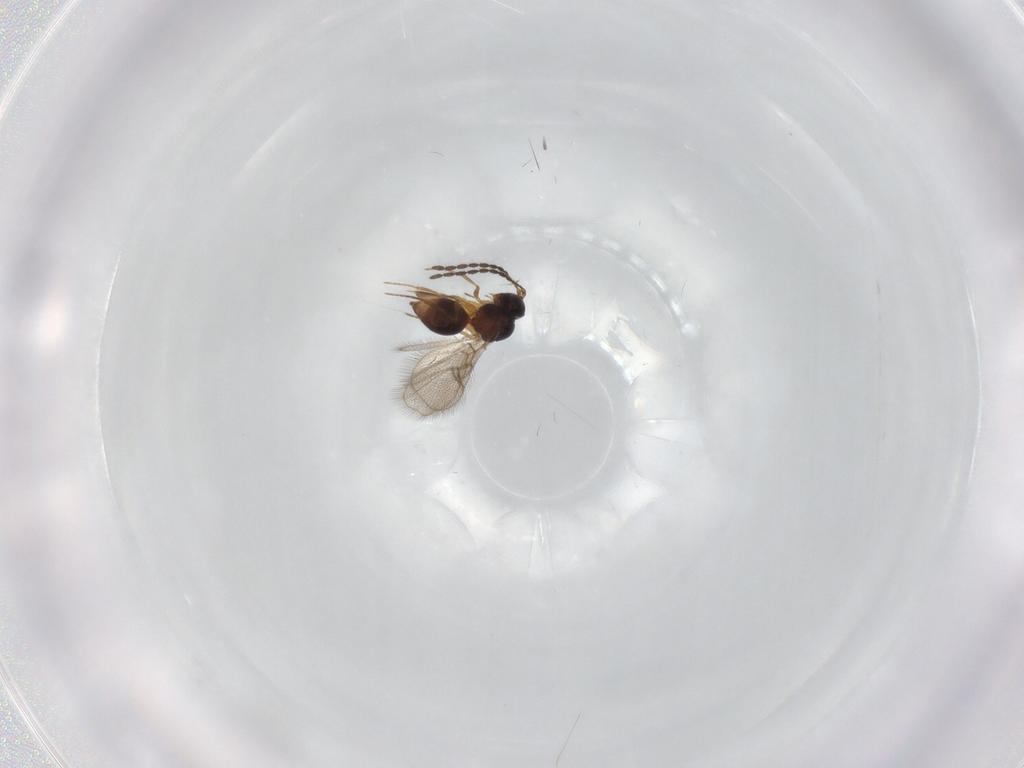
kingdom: Animalia
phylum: Arthropoda
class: Insecta
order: Hymenoptera
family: Figitidae
